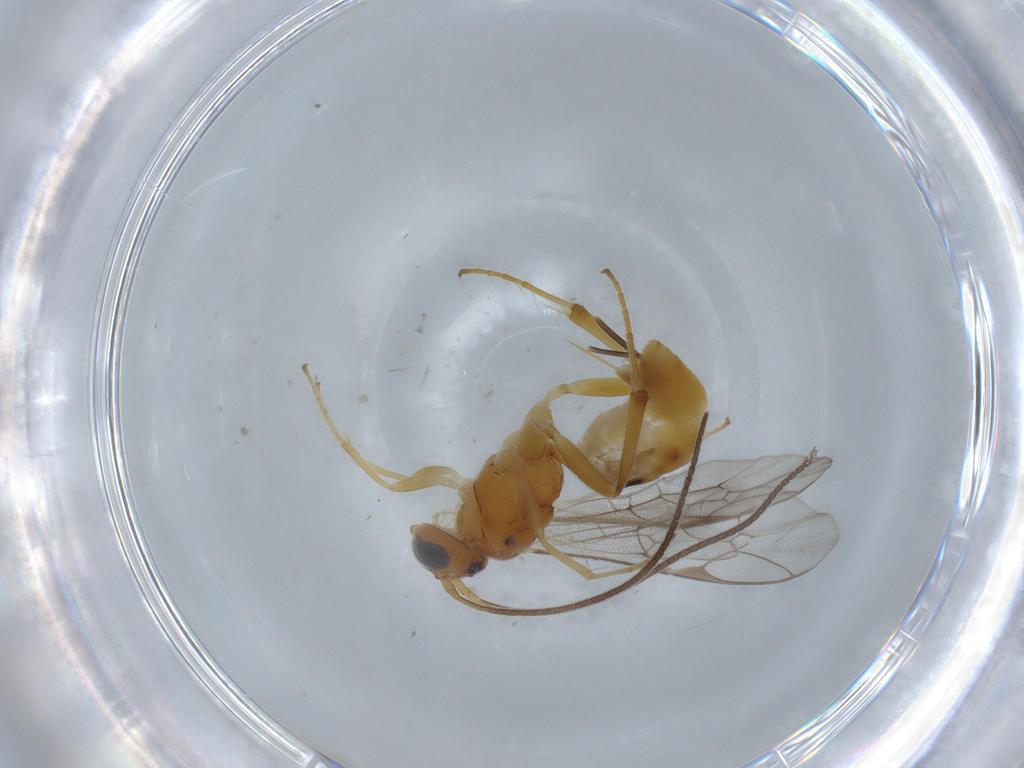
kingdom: Animalia
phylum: Arthropoda
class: Insecta
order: Hymenoptera
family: Ichneumonidae
